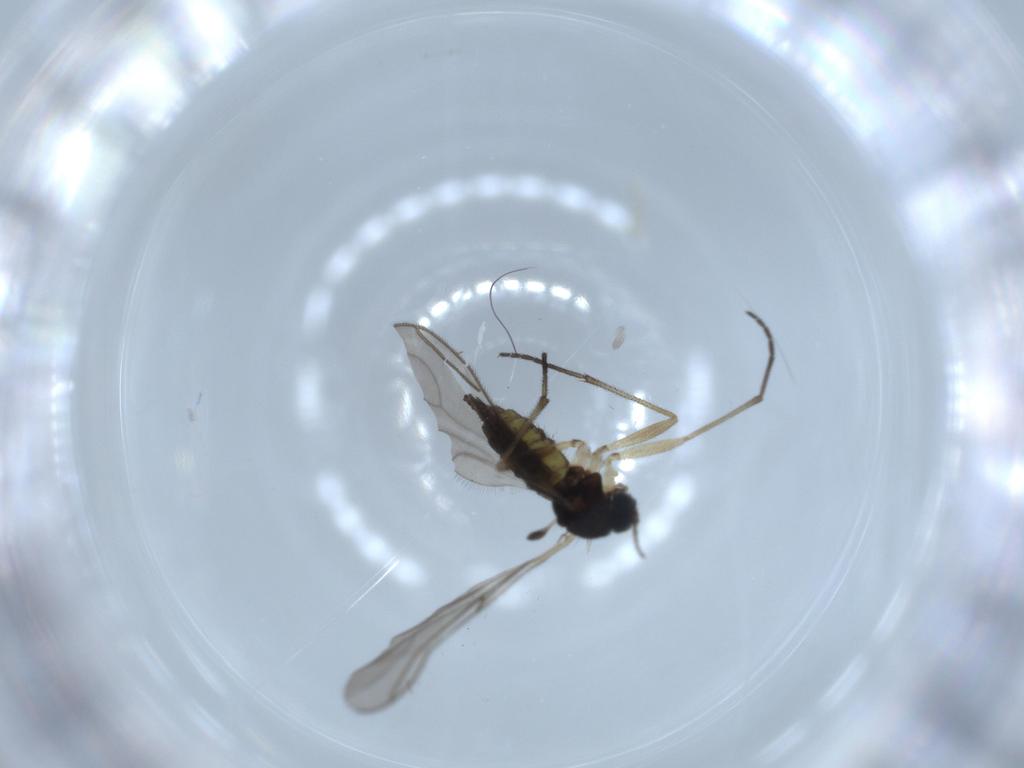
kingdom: Animalia
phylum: Arthropoda
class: Insecta
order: Diptera
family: Sciaridae
